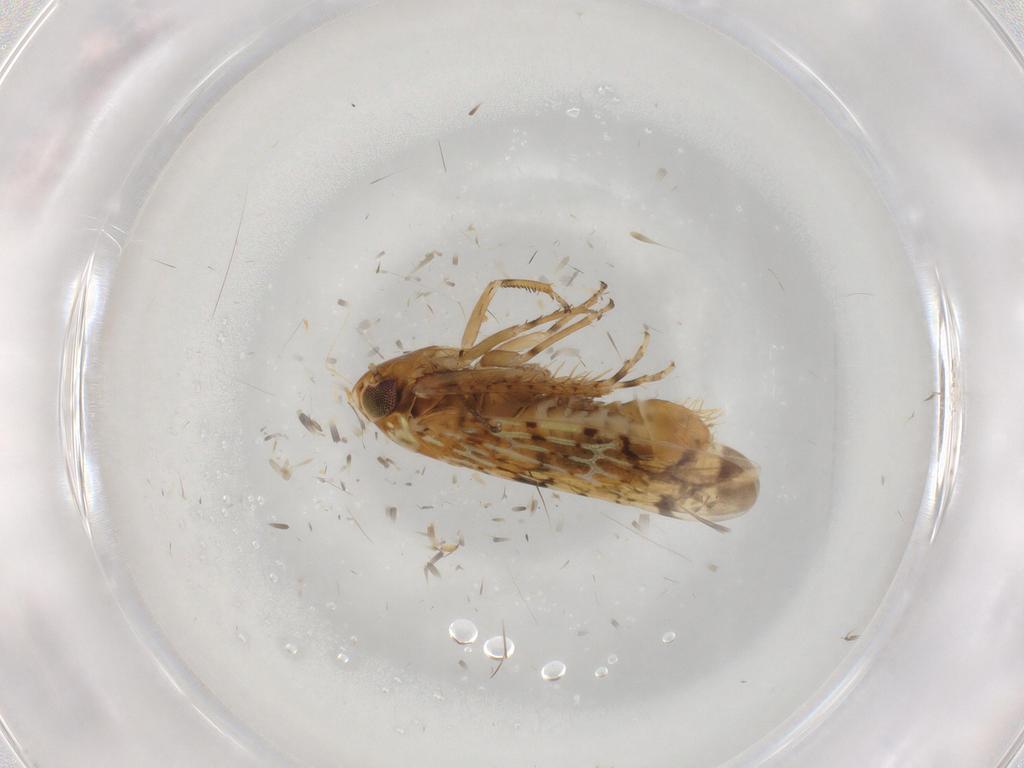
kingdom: Animalia
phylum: Arthropoda
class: Insecta
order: Hemiptera
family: Cicadellidae
